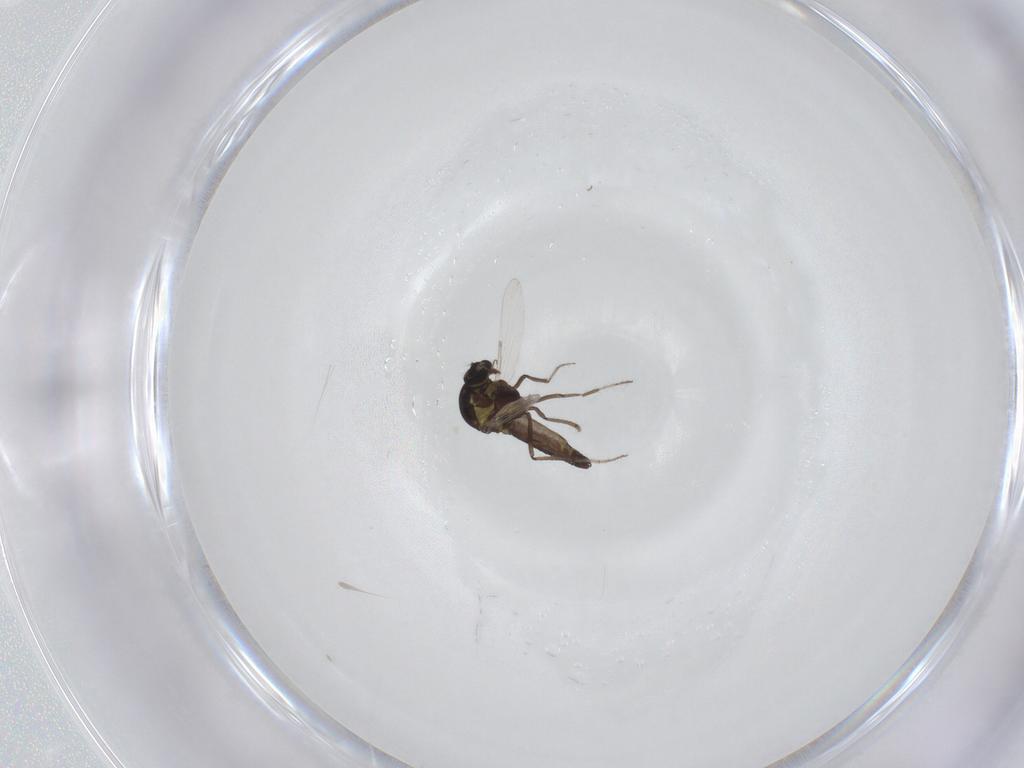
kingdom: Animalia
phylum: Arthropoda
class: Insecta
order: Diptera
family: Ceratopogonidae
